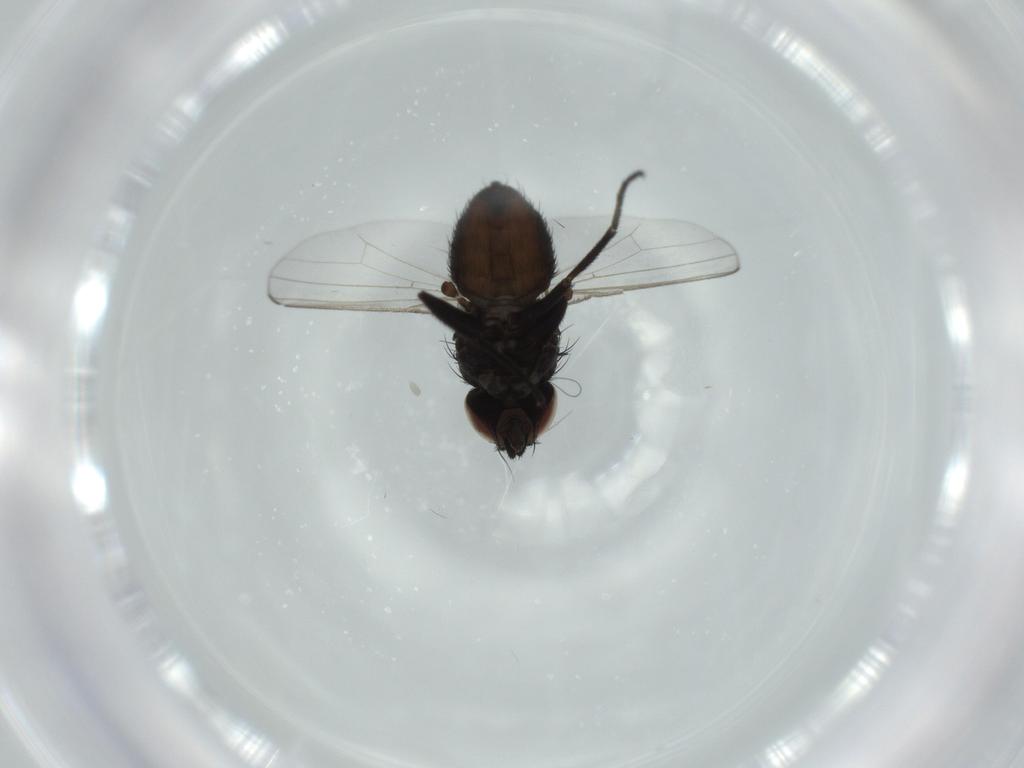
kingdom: Animalia
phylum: Arthropoda
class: Insecta
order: Diptera
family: Milichiidae
